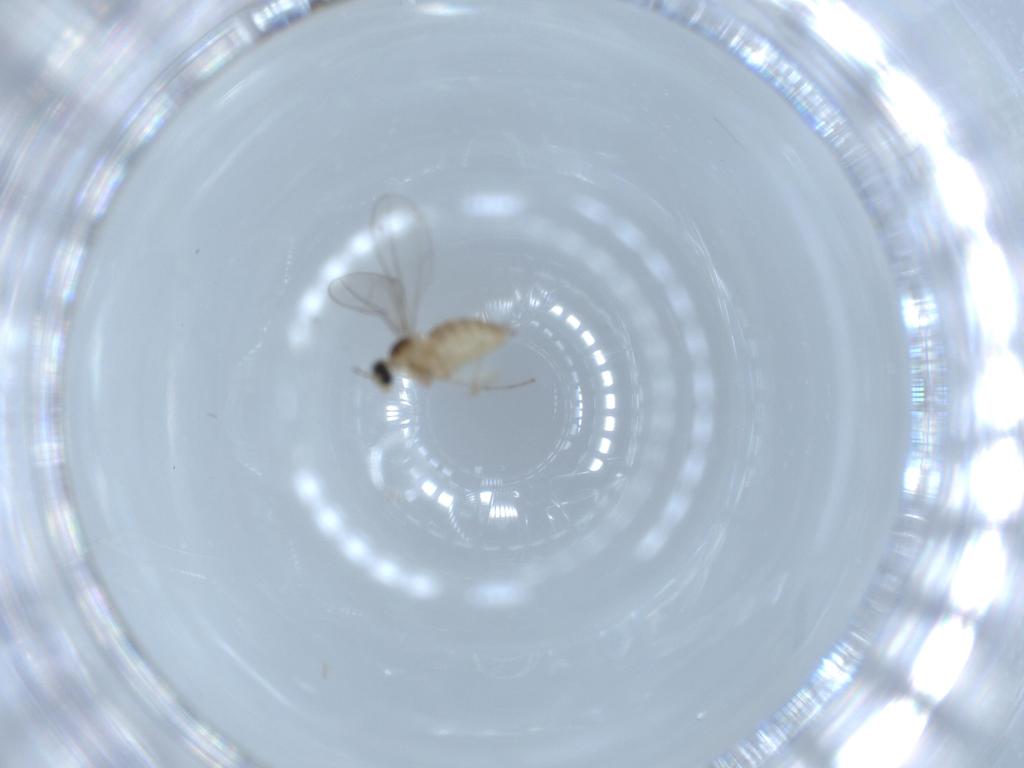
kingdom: Animalia
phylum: Arthropoda
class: Insecta
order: Diptera
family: Cecidomyiidae
